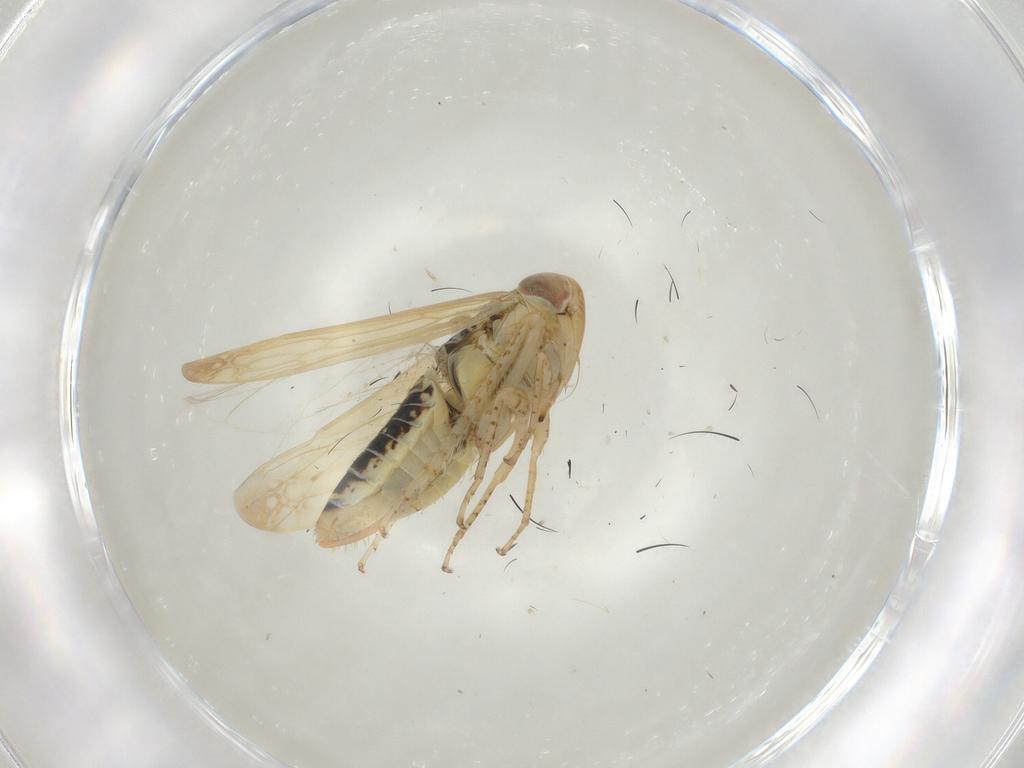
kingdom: Animalia
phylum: Arthropoda
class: Insecta
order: Hemiptera
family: Cicadellidae
